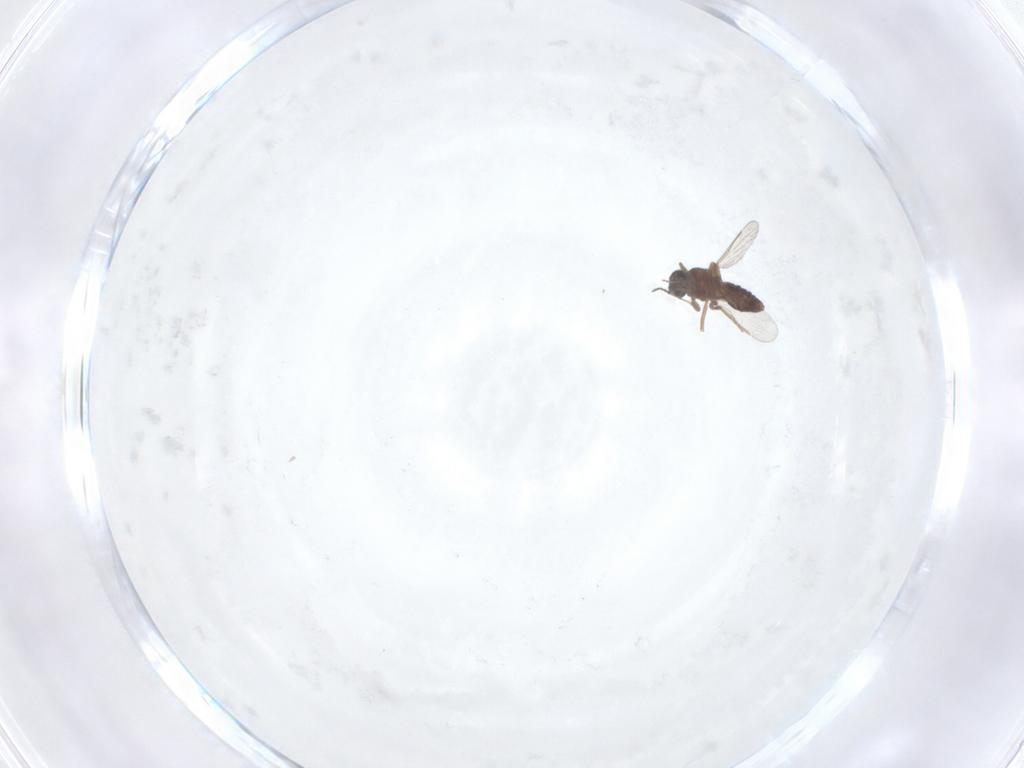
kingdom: Animalia
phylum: Arthropoda
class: Insecta
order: Diptera
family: Ceratopogonidae
